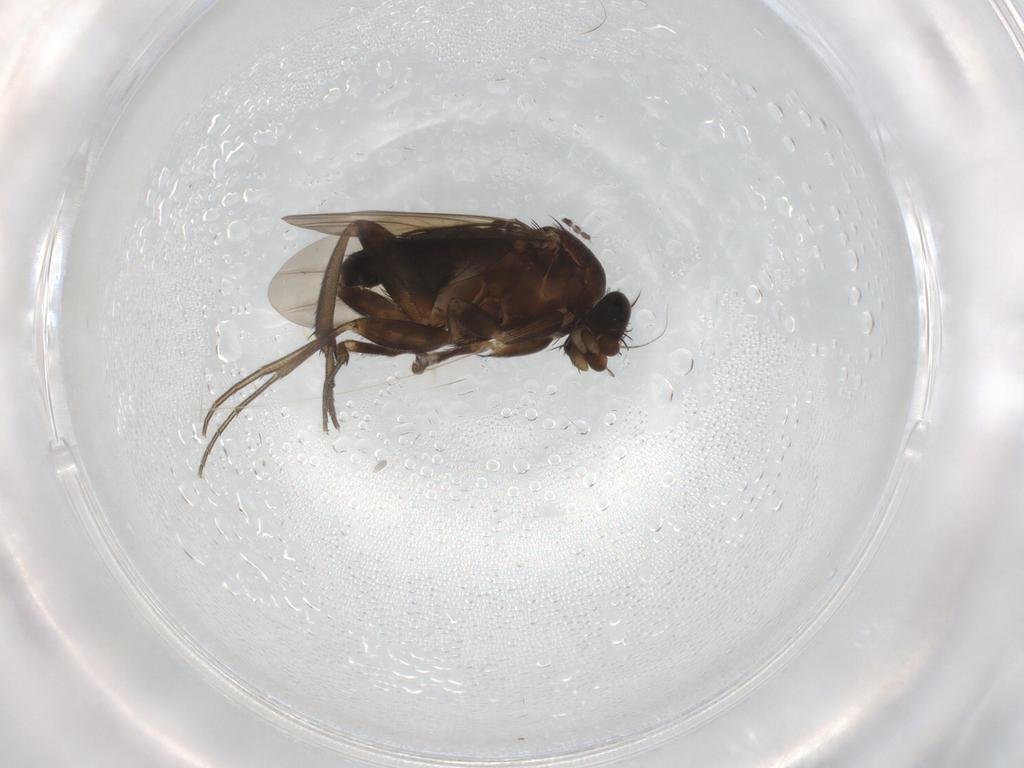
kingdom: Animalia
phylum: Arthropoda
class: Insecta
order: Diptera
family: Phoridae
